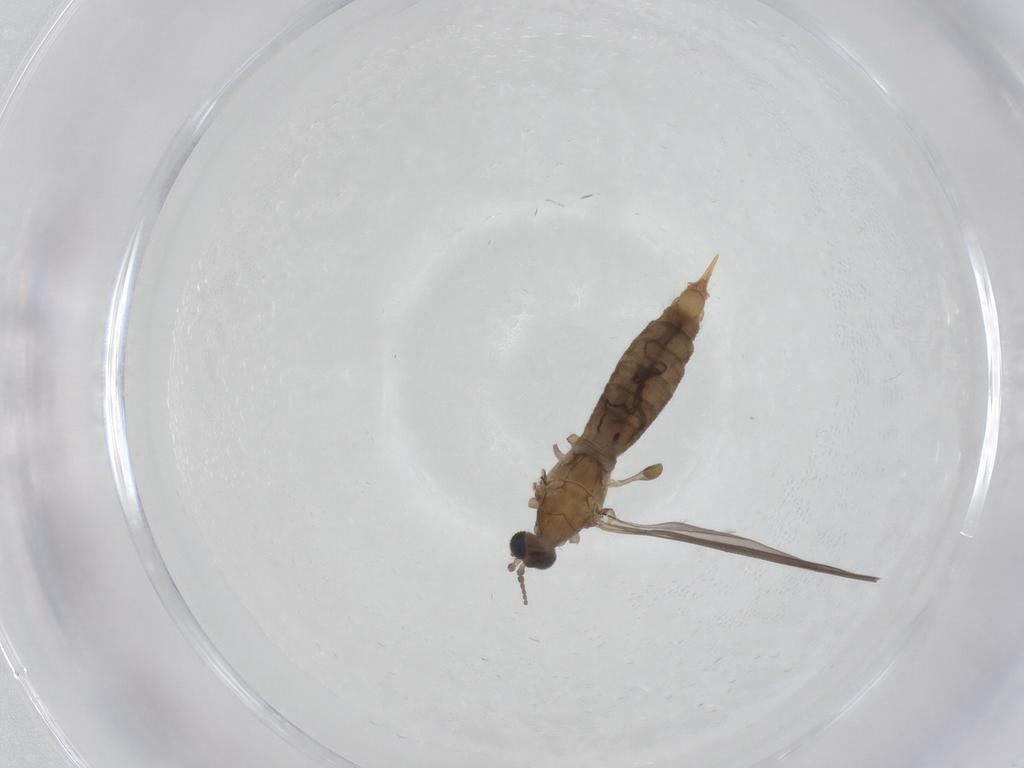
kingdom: Animalia
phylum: Arthropoda
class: Insecta
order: Diptera
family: Limoniidae
